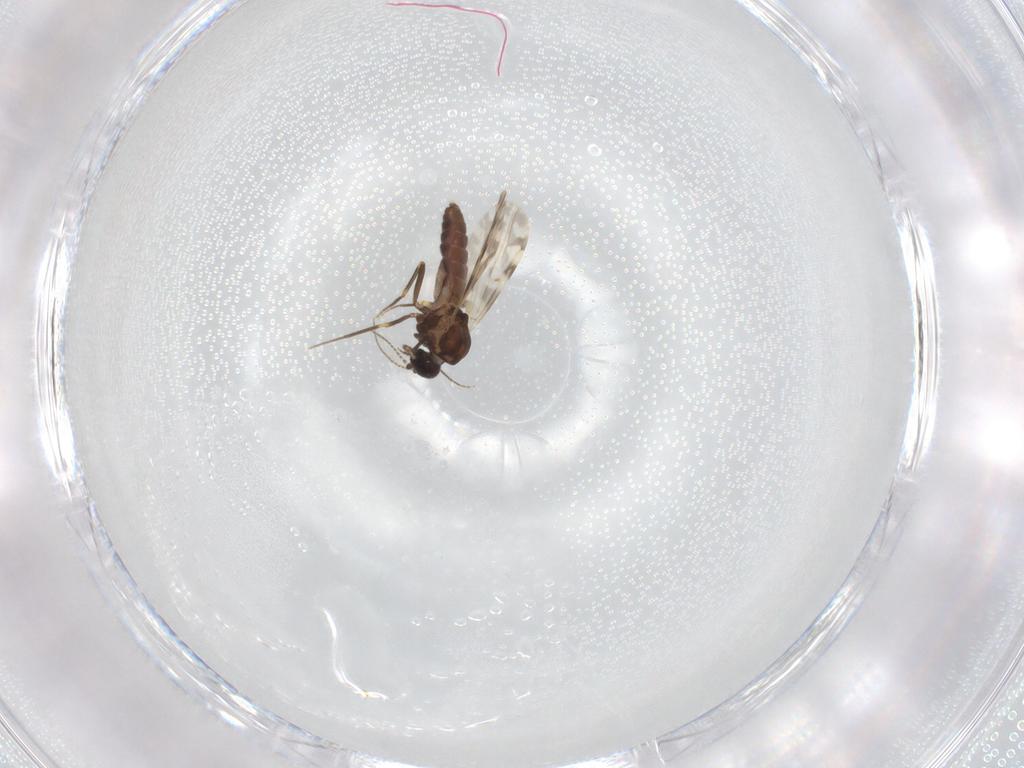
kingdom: Animalia
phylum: Arthropoda
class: Insecta
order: Diptera
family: Ceratopogonidae
